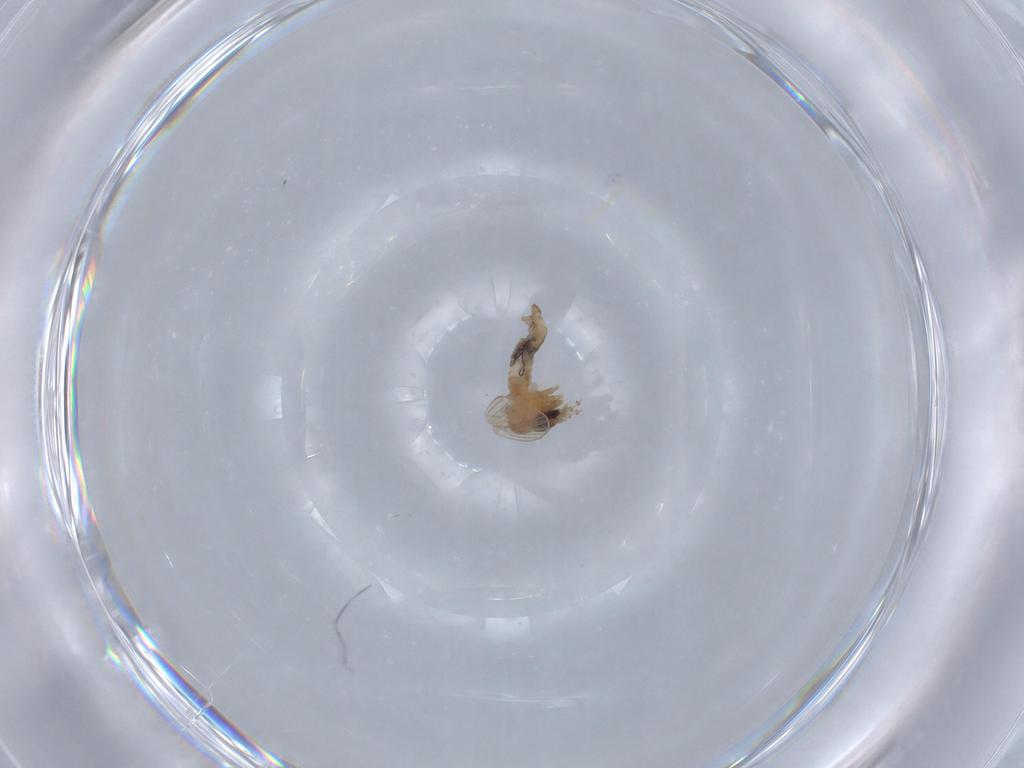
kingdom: Animalia
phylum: Arthropoda
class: Insecta
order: Diptera
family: Psychodidae
